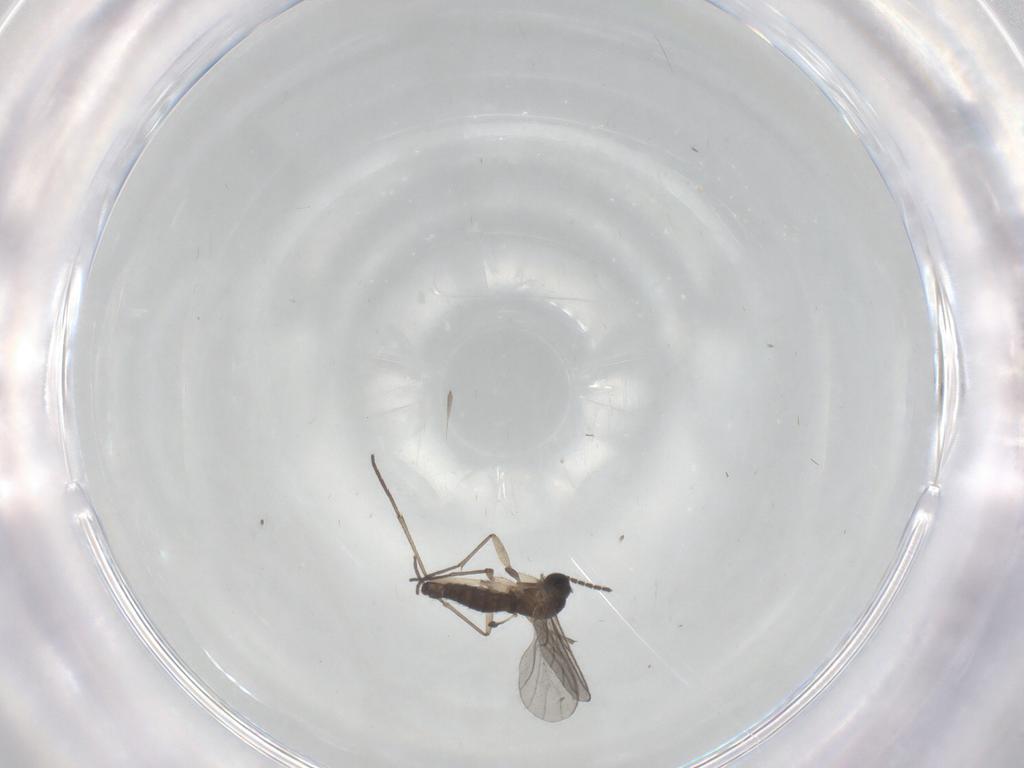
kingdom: Animalia
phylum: Arthropoda
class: Insecta
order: Diptera
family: Sciaridae
